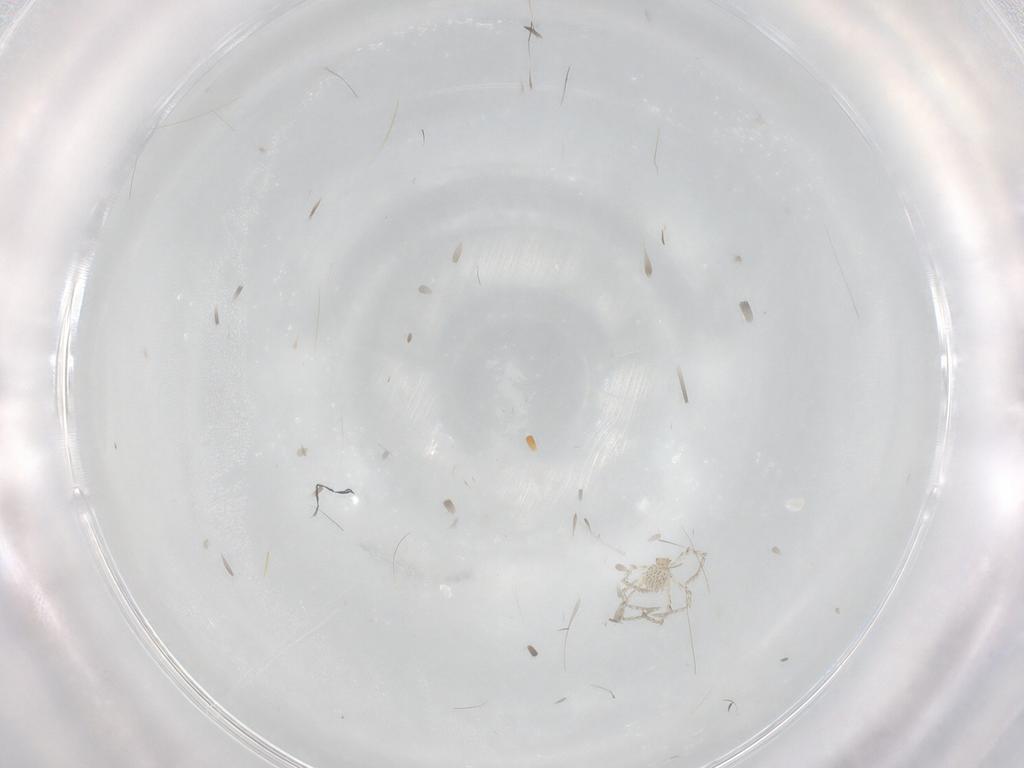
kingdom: Animalia
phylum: Arthropoda
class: Arachnida
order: Trombidiformes
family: Erythraeidae
